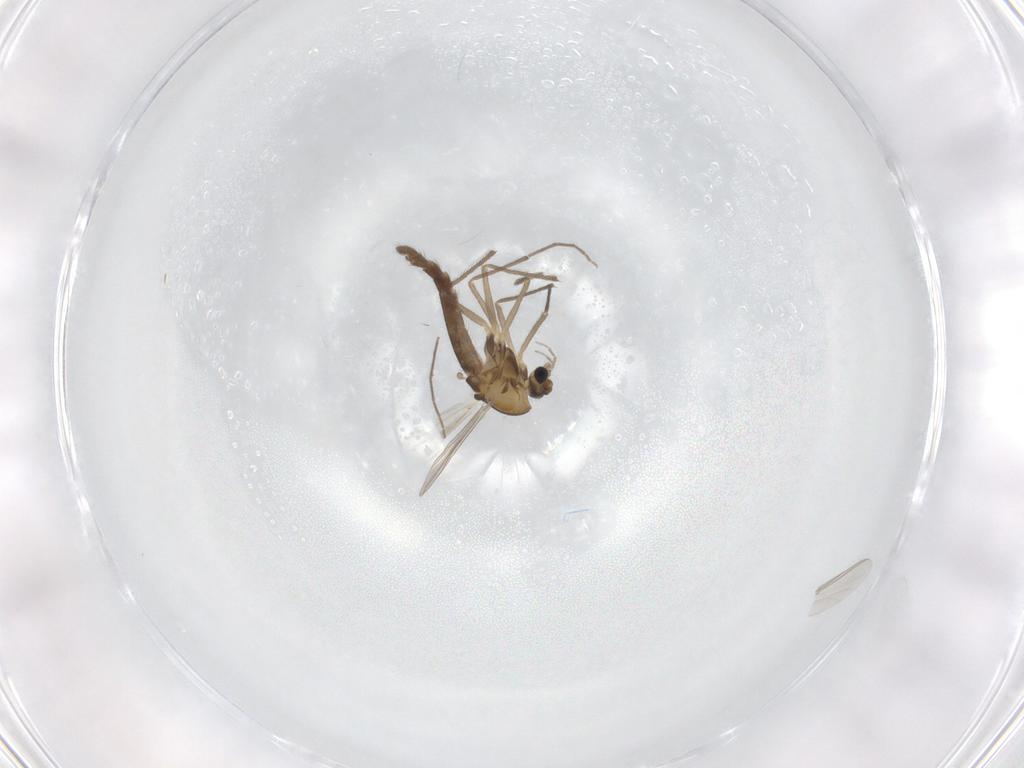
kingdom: Animalia
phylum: Arthropoda
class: Insecta
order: Diptera
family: Chironomidae
